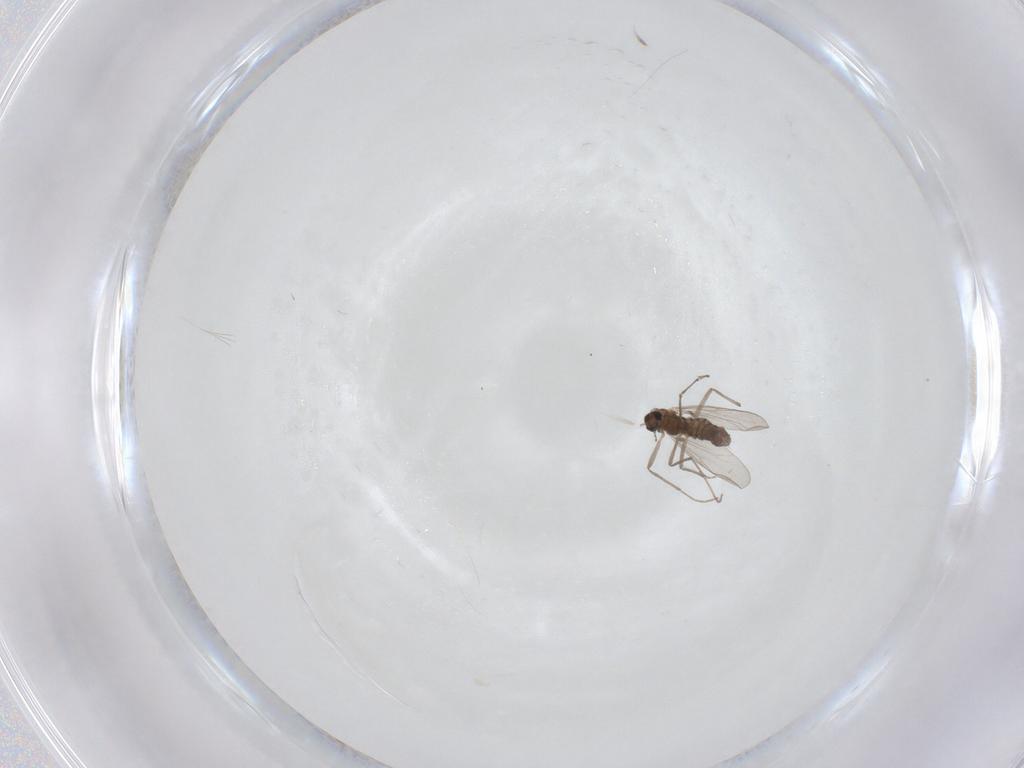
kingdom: Animalia
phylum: Arthropoda
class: Insecta
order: Diptera
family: Chironomidae
